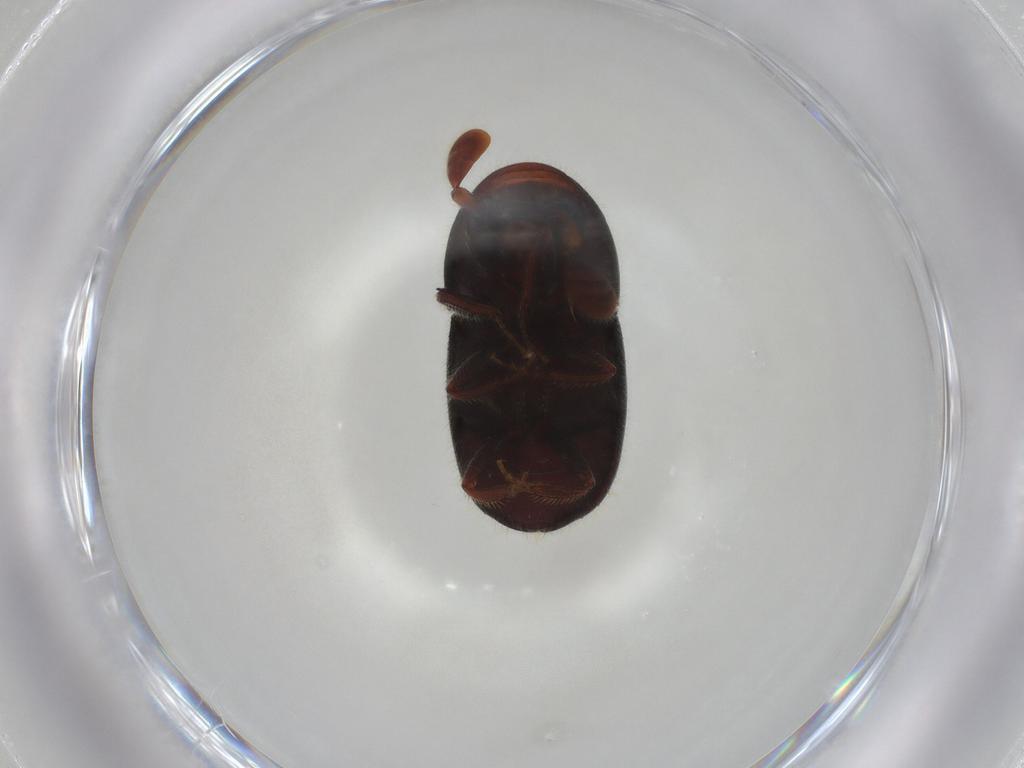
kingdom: Animalia
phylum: Arthropoda
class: Insecta
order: Coleoptera
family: Curculionidae
